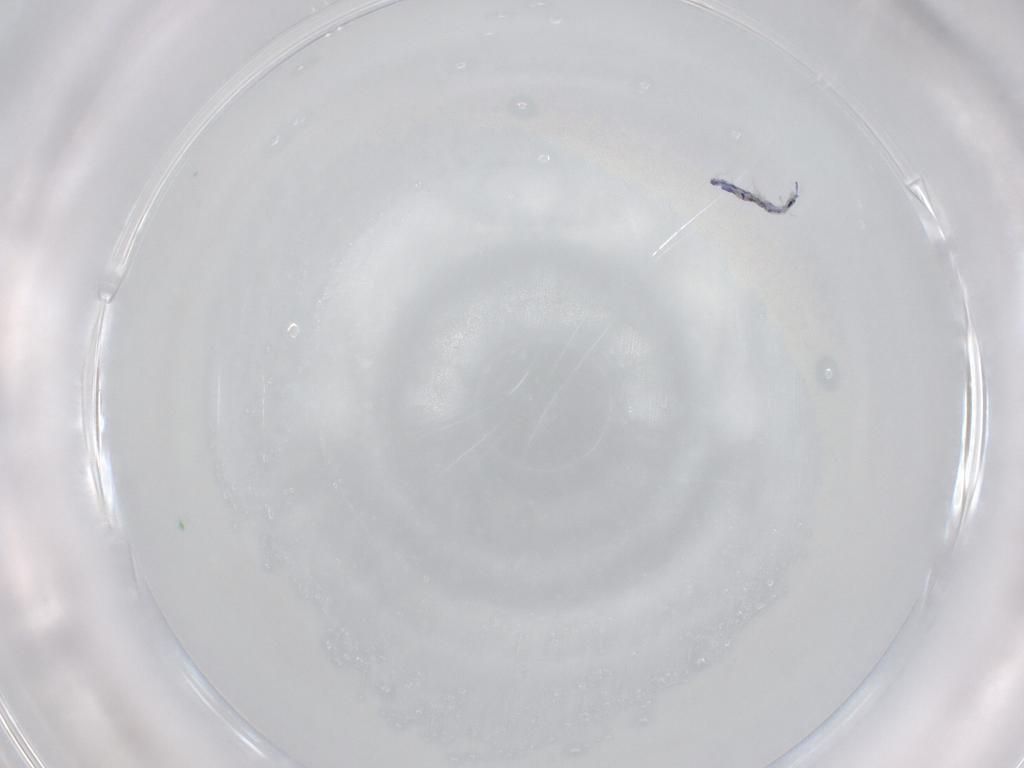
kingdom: Animalia
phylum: Arthropoda
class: Collembola
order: Entomobryomorpha
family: Entomobryidae
